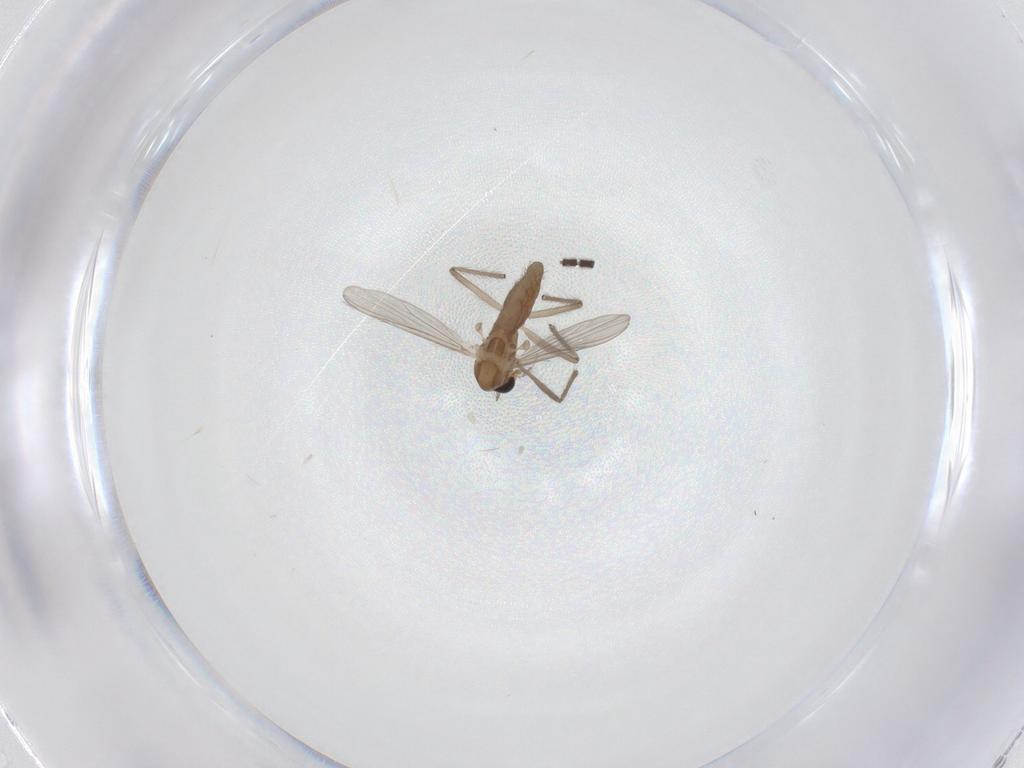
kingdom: Animalia
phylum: Arthropoda
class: Insecta
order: Diptera
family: Chironomidae
